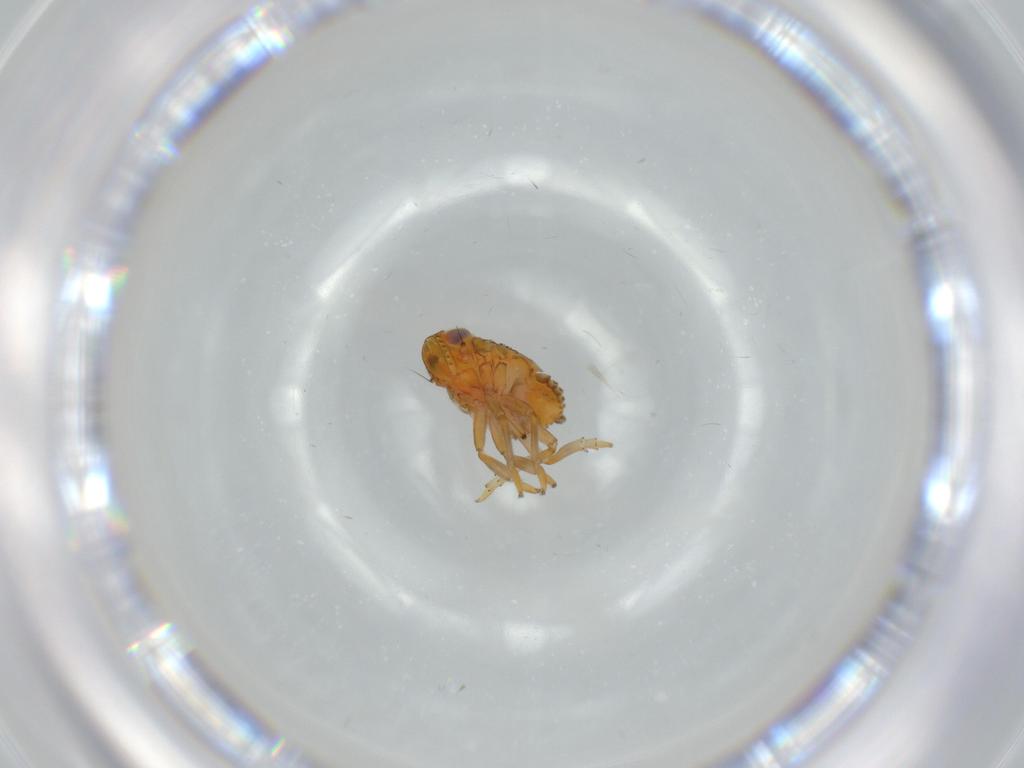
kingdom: Animalia
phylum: Arthropoda
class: Insecta
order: Hemiptera
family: Issidae
